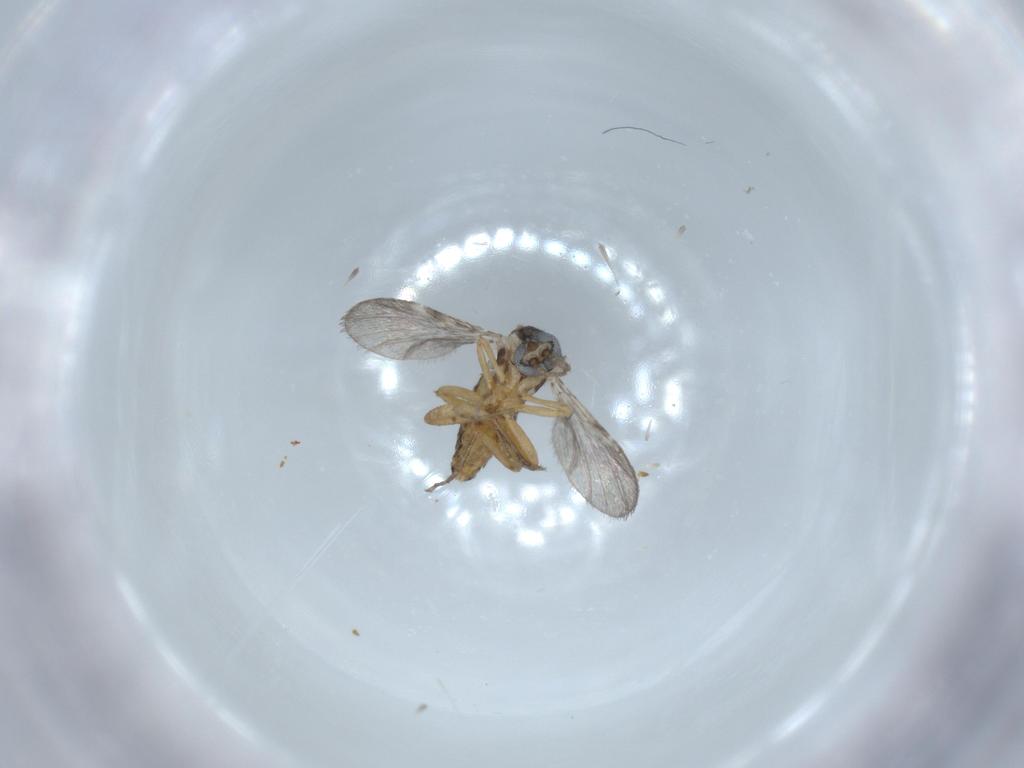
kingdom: Animalia
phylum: Arthropoda
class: Insecta
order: Diptera
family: Ceratopogonidae
